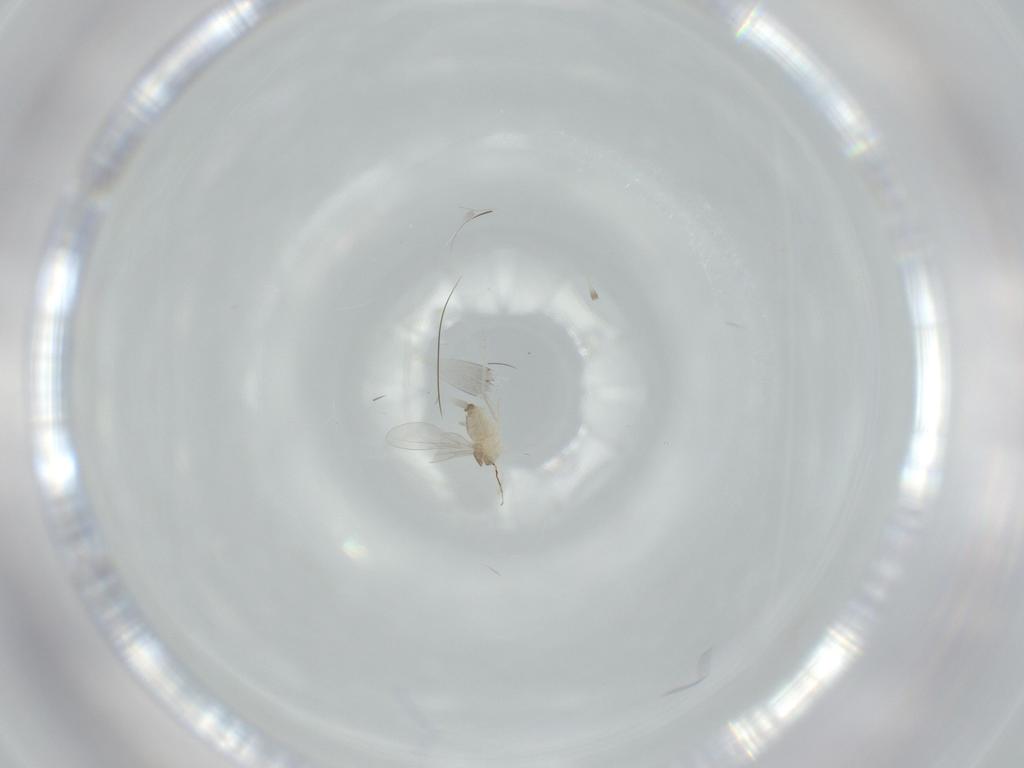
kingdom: Animalia
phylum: Arthropoda
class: Insecta
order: Diptera
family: Cecidomyiidae
